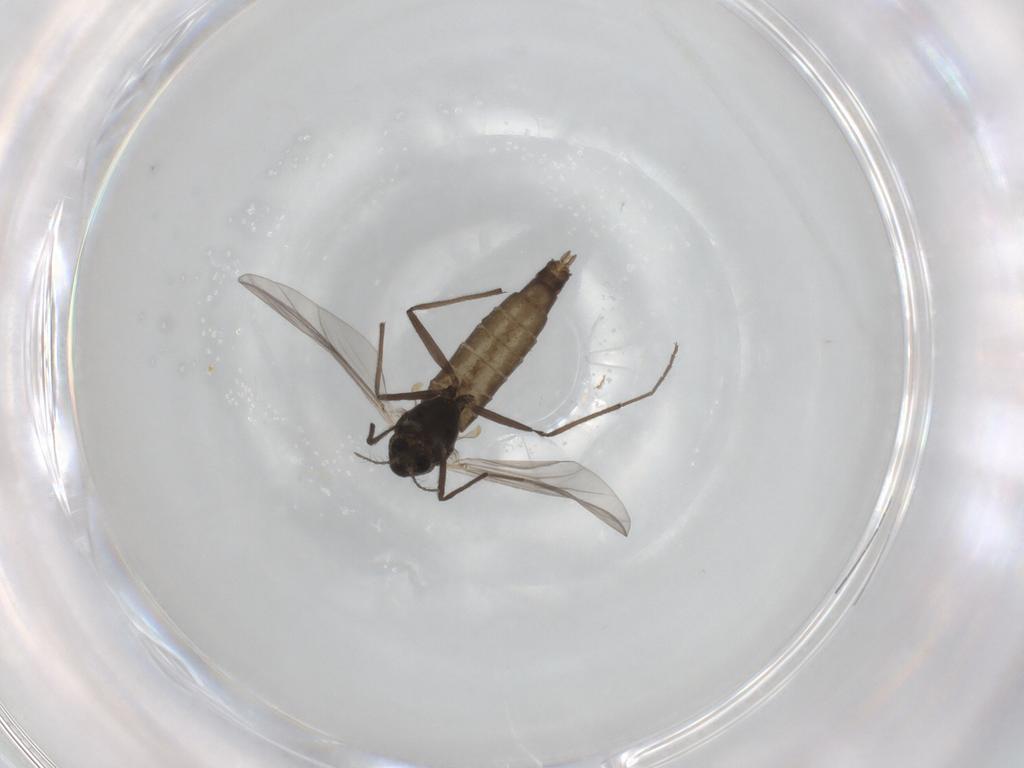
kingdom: Animalia
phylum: Arthropoda
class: Insecta
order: Diptera
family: Chironomidae
